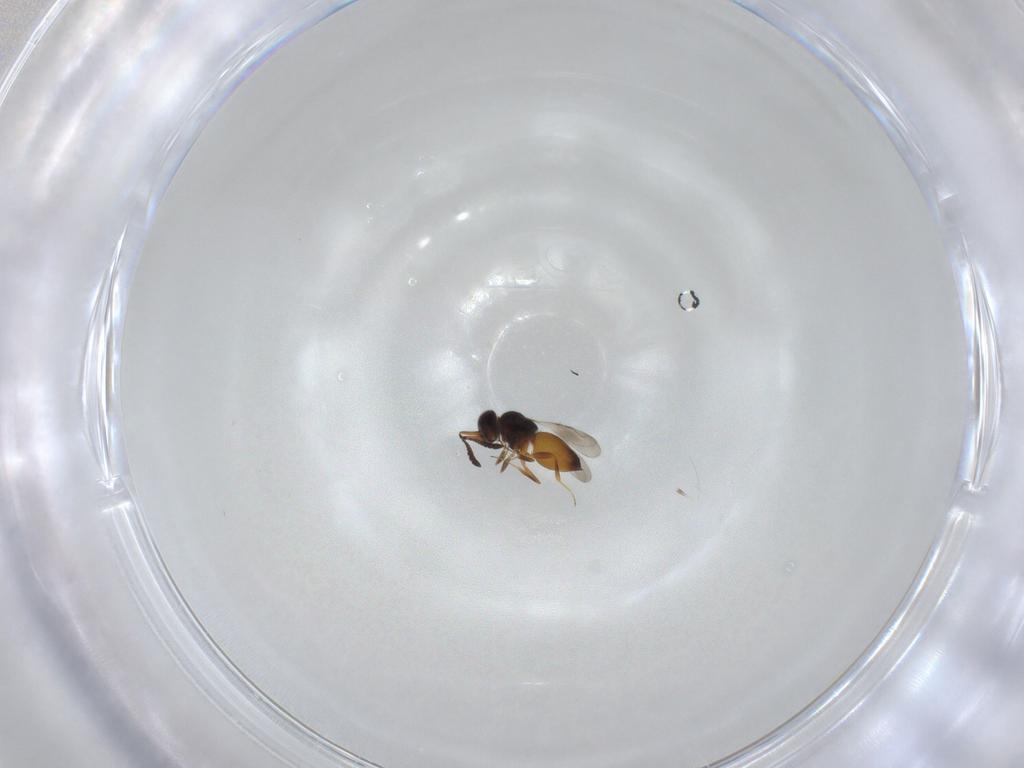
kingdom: Animalia
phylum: Arthropoda
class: Insecta
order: Hymenoptera
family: Ceraphronidae
